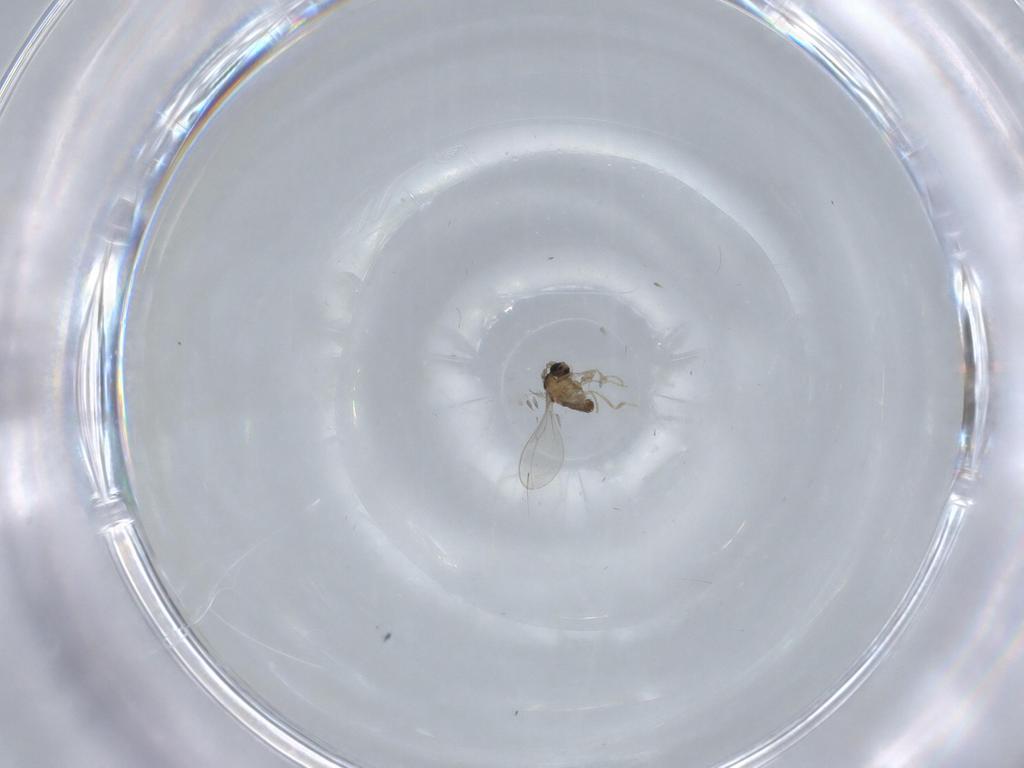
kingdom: Animalia
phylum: Arthropoda
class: Insecta
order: Diptera
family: Cecidomyiidae
